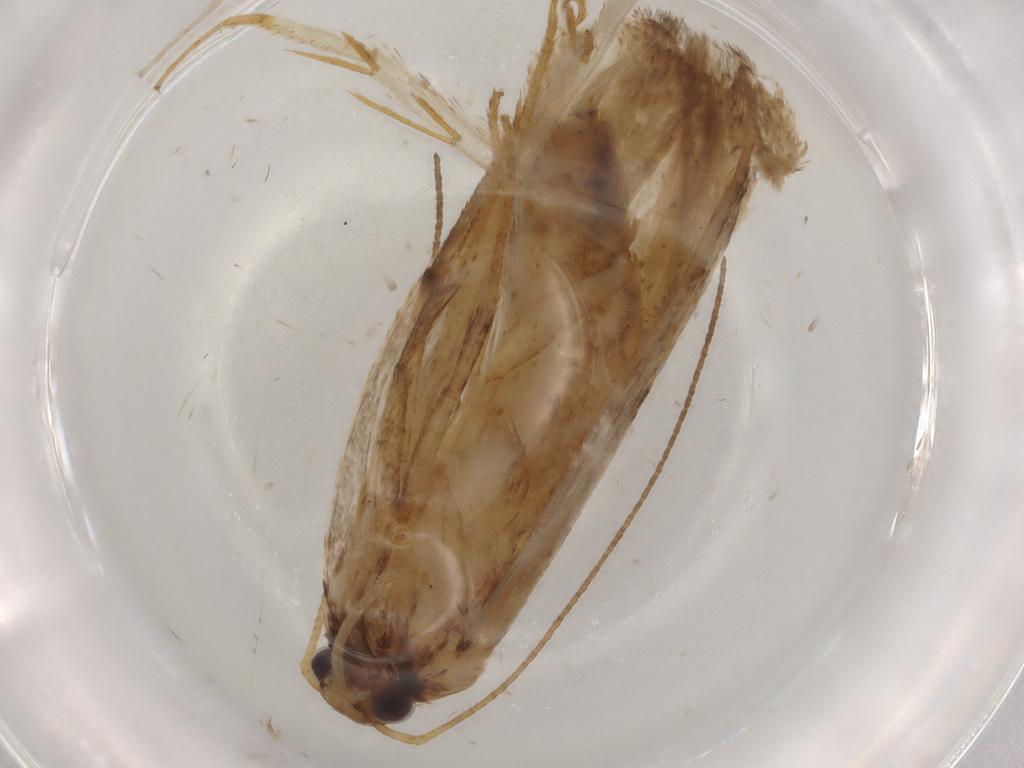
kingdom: Animalia
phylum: Arthropoda
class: Insecta
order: Lepidoptera
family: Gelechiidae
